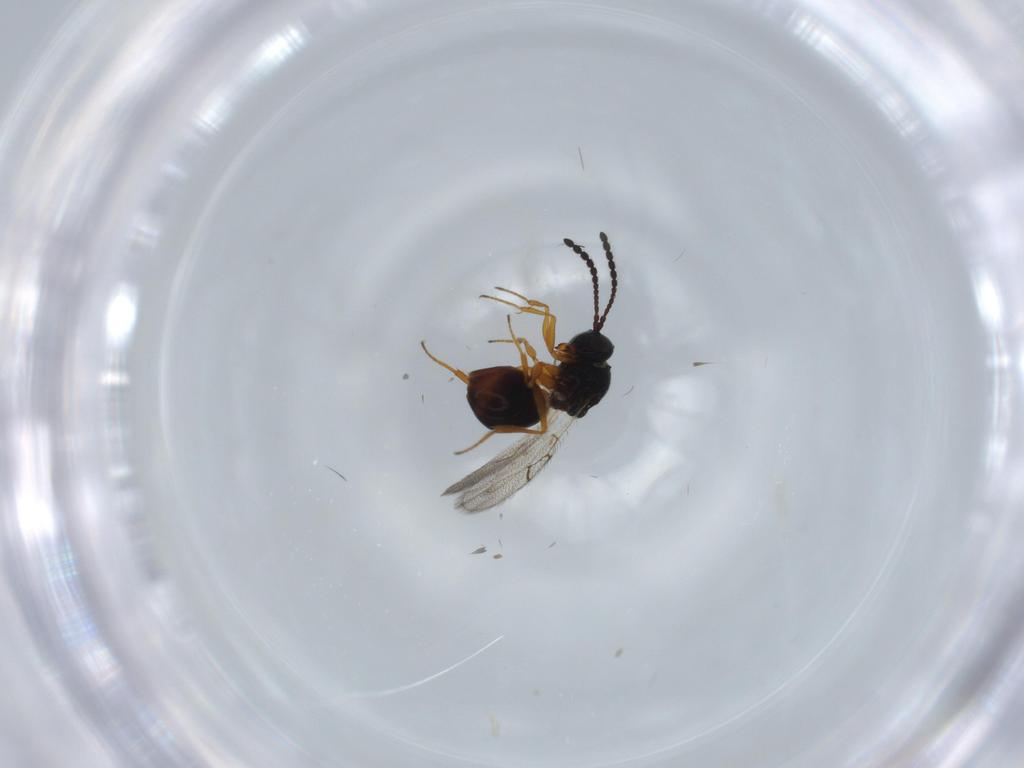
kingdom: Animalia
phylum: Arthropoda
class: Insecta
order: Hymenoptera
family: Figitidae
